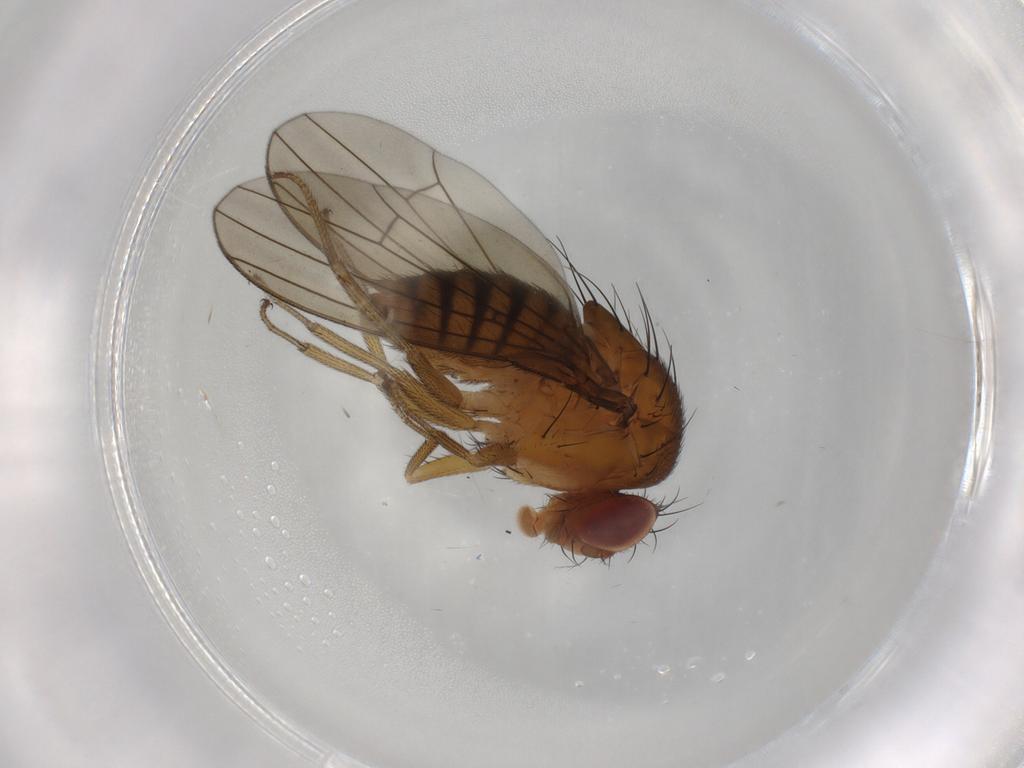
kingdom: Animalia
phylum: Arthropoda
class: Insecta
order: Diptera
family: Drosophilidae
